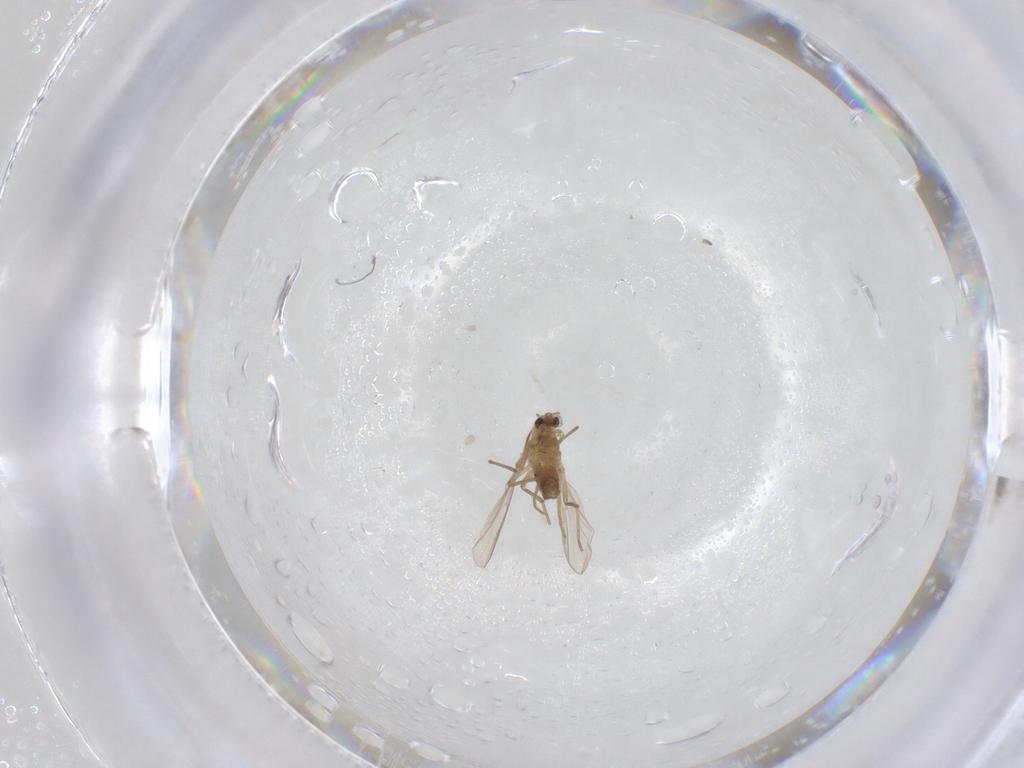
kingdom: Animalia
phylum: Arthropoda
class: Insecta
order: Diptera
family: Chironomidae
